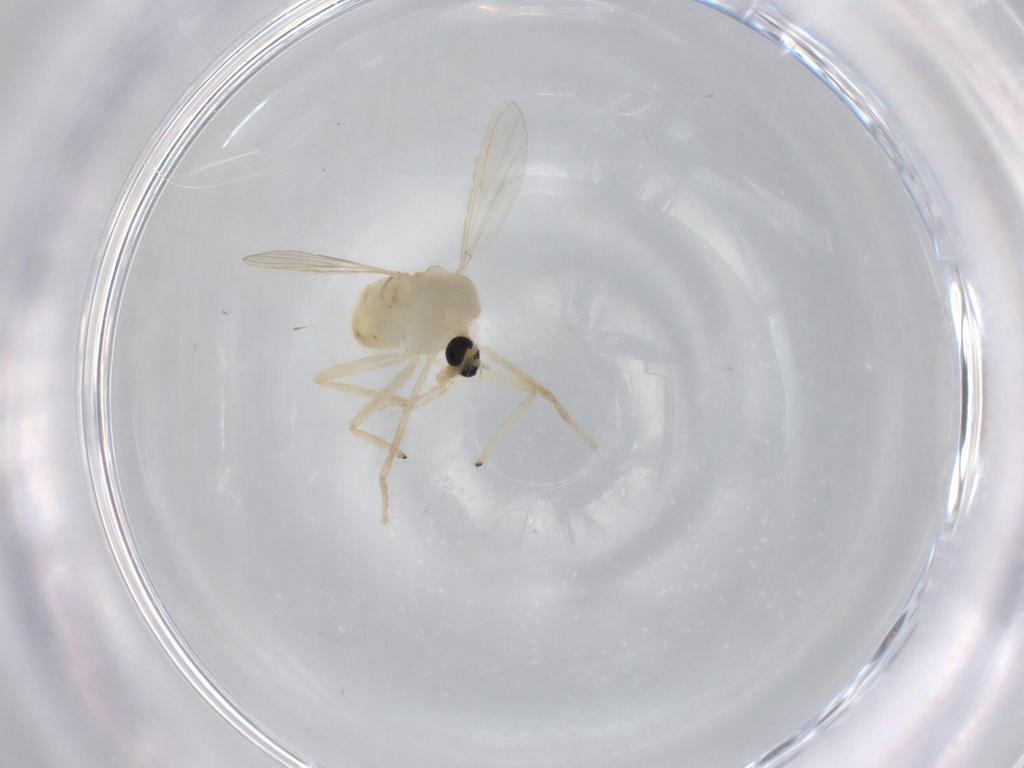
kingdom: Animalia
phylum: Arthropoda
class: Insecta
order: Diptera
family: Chironomidae
